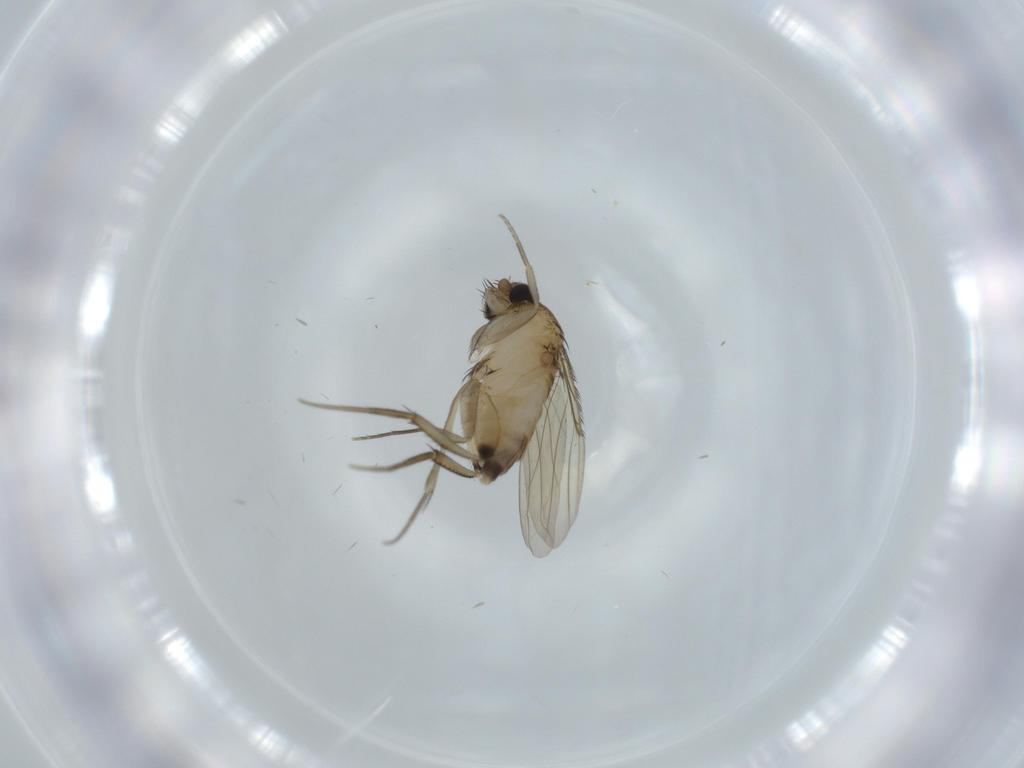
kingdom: Animalia
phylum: Arthropoda
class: Insecta
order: Diptera
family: Phoridae
